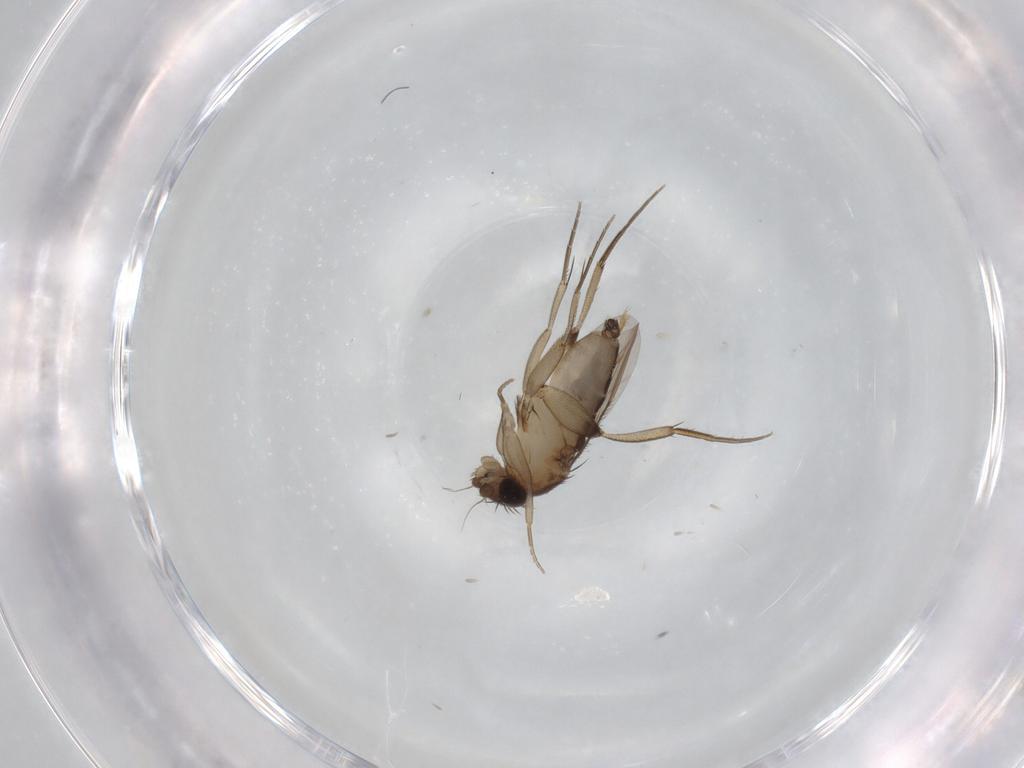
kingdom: Animalia
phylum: Arthropoda
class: Insecta
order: Diptera
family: Phoridae
